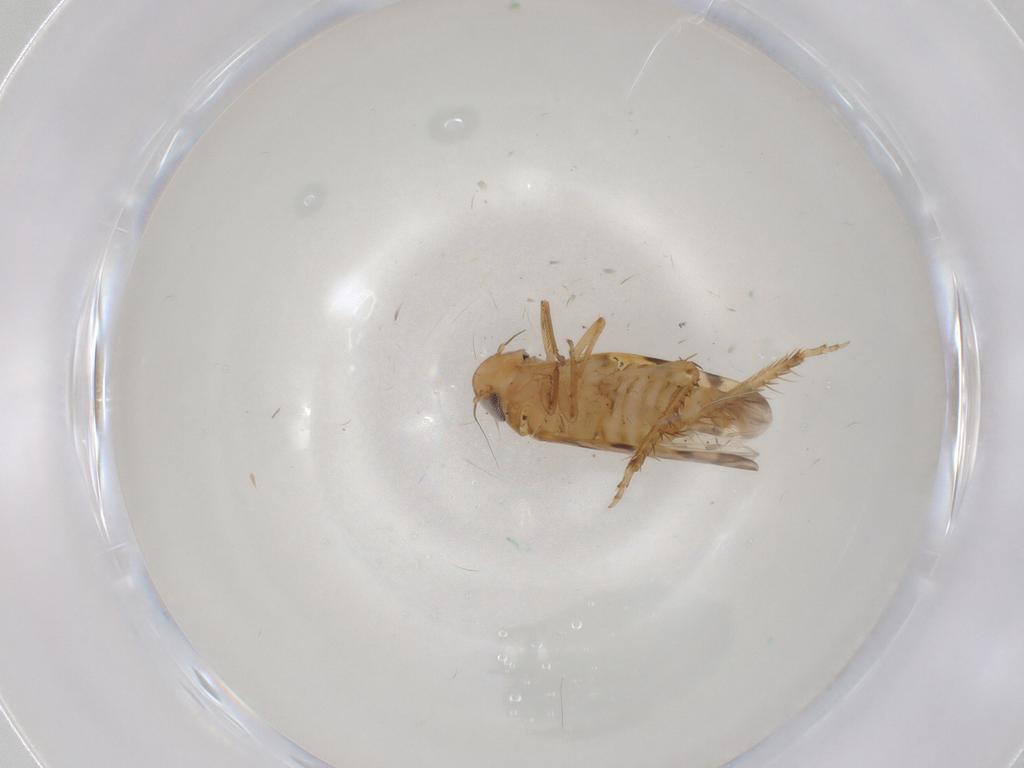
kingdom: Animalia
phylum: Arthropoda
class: Insecta
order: Hemiptera
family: Cicadellidae
